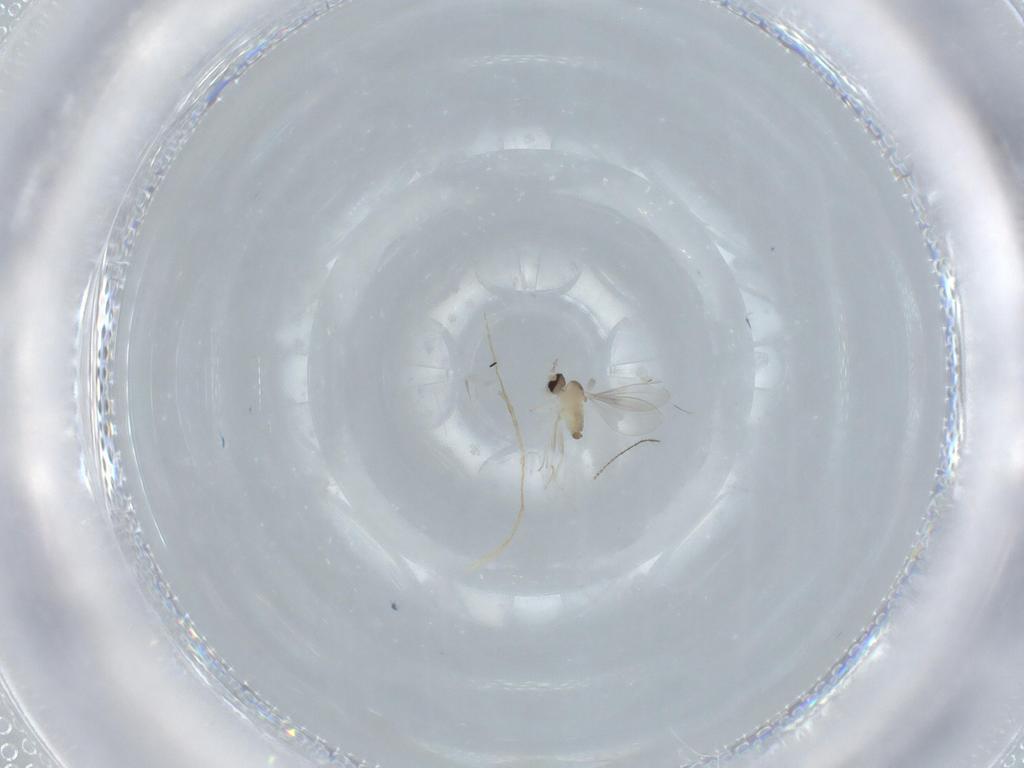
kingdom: Animalia
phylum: Arthropoda
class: Insecta
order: Diptera
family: Cecidomyiidae
